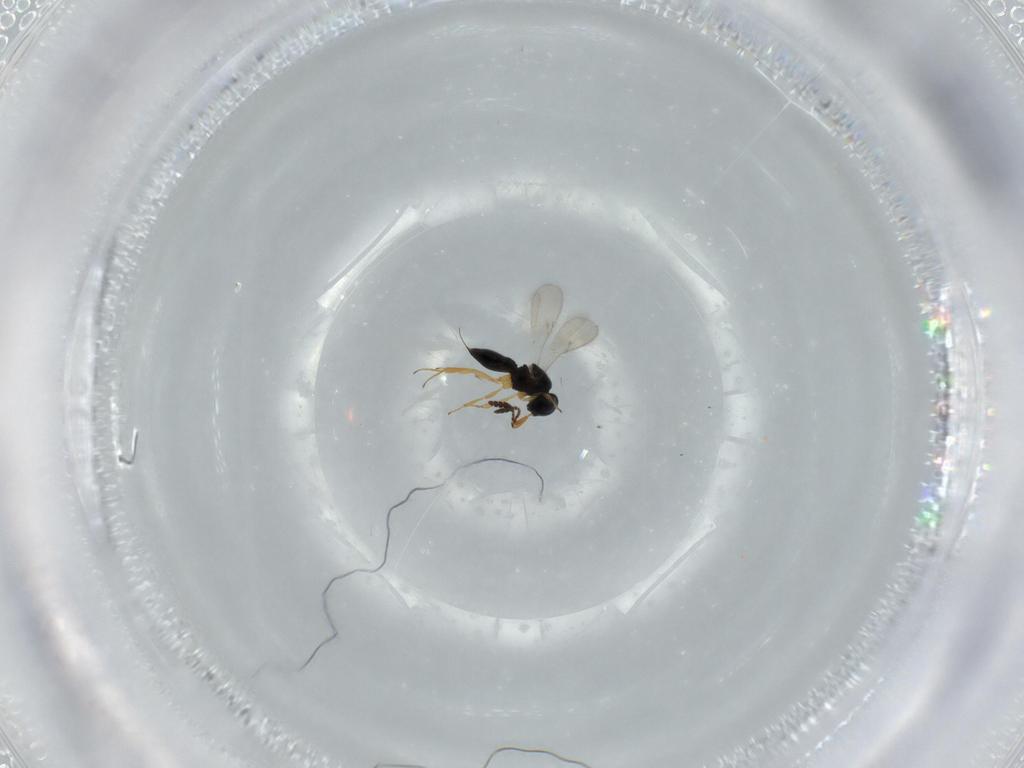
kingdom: Animalia
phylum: Arthropoda
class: Insecta
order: Hymenoptera
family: Scelionidae
